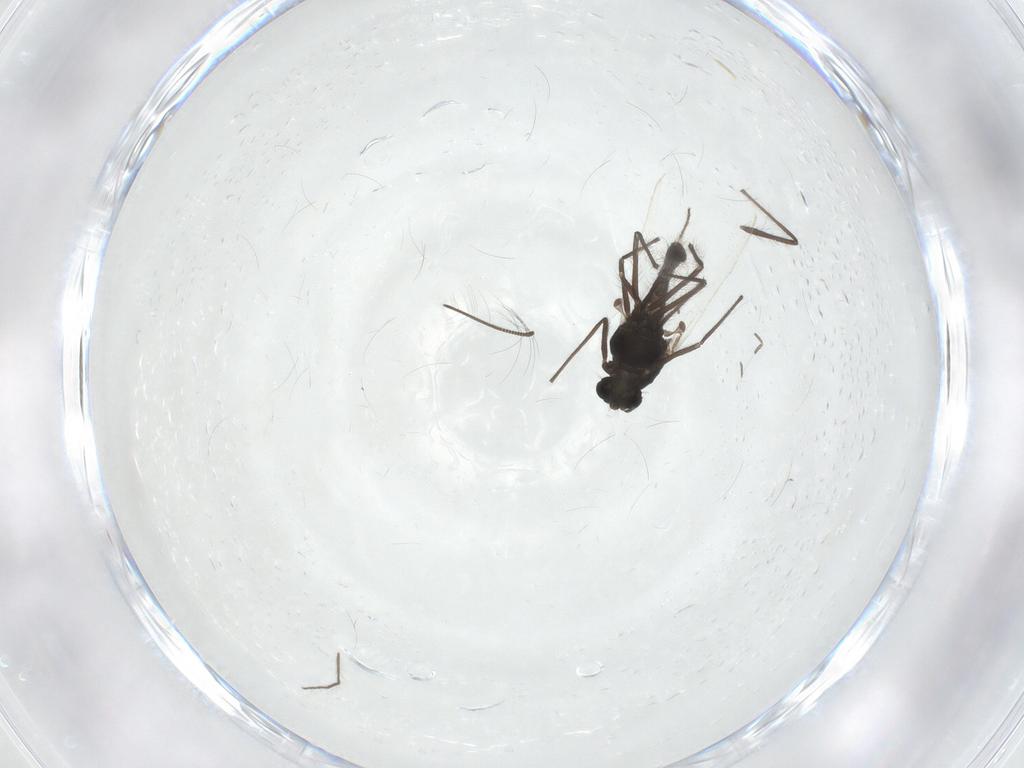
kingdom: Animalia
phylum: Arthropoda
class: Insecta
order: Diptera
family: Chironomidae
